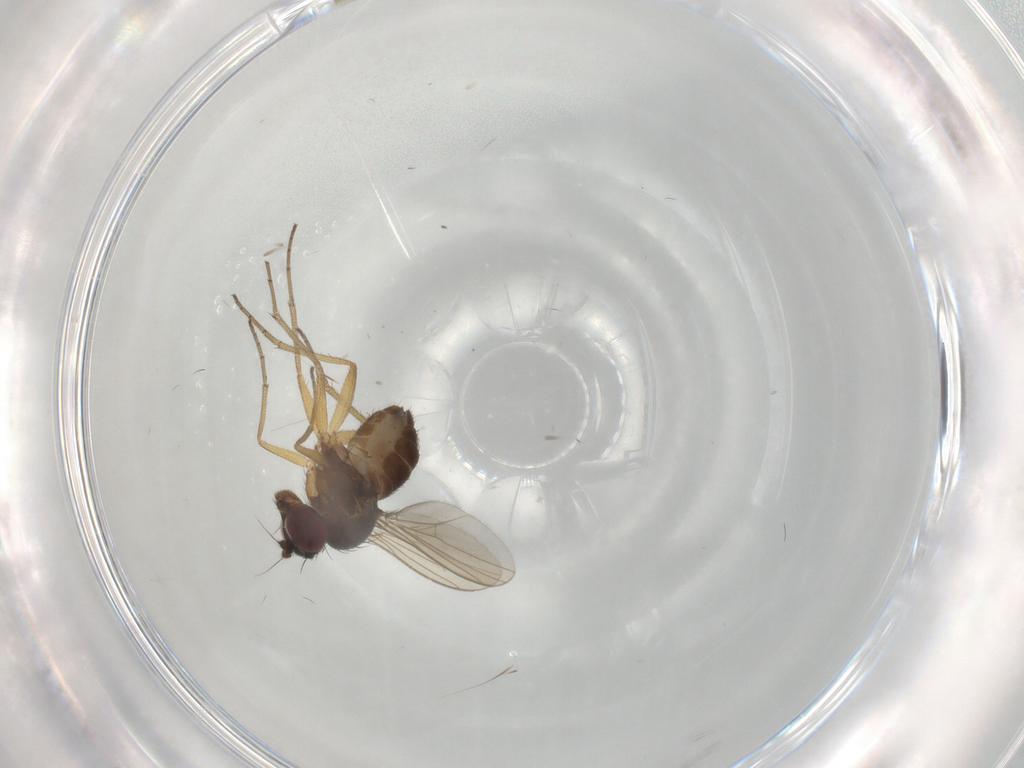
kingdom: Animalia
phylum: Arthropoda
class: Insecta
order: Diptera
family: Dolichopodidae
